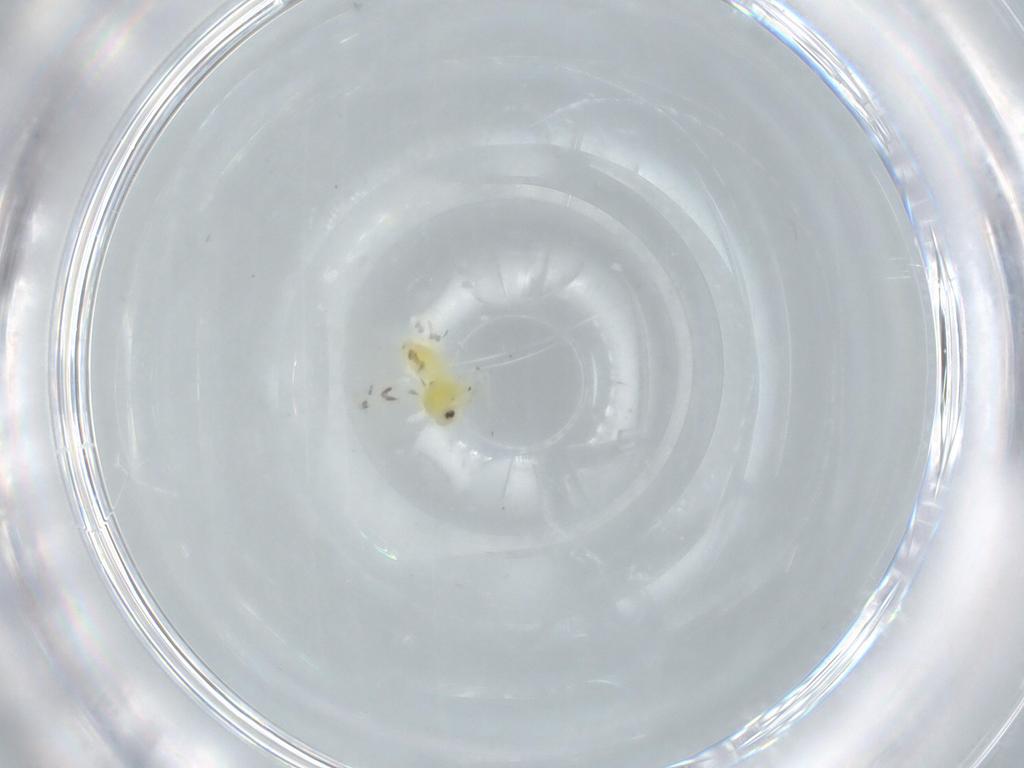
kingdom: Animalia
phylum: Arthropoda
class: Insecta
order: Hemiptera
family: Aleyrodidae
